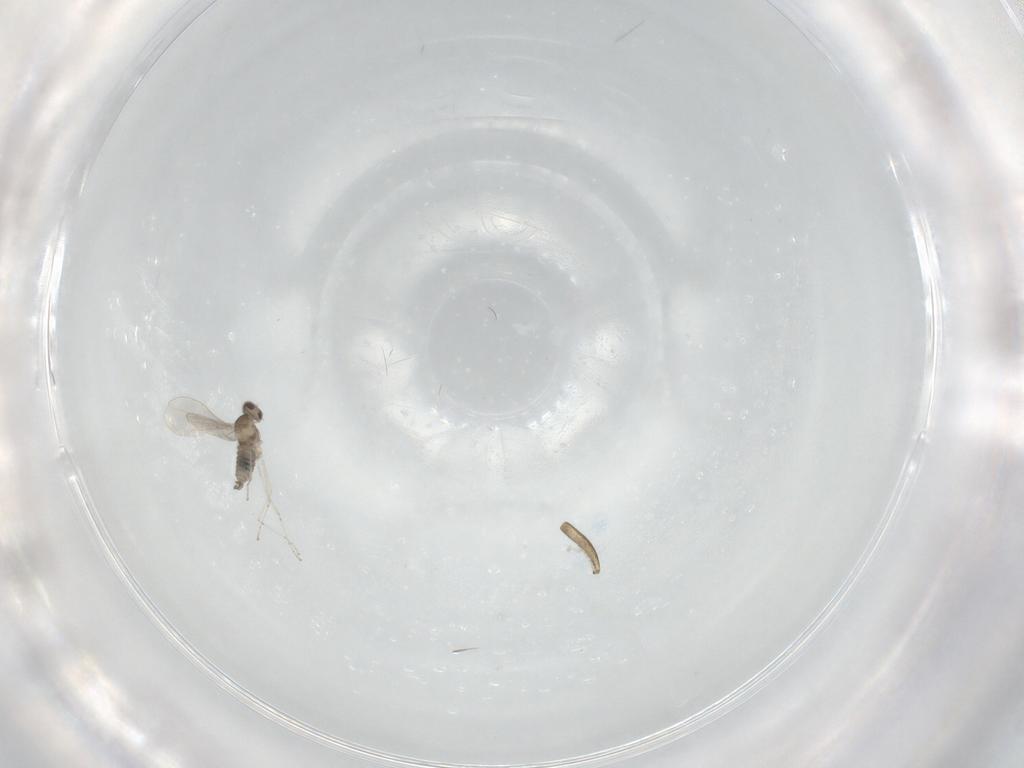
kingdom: Animalia
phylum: Arthropoda
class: Insecta
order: Diptera
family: Cecidomyiidae
